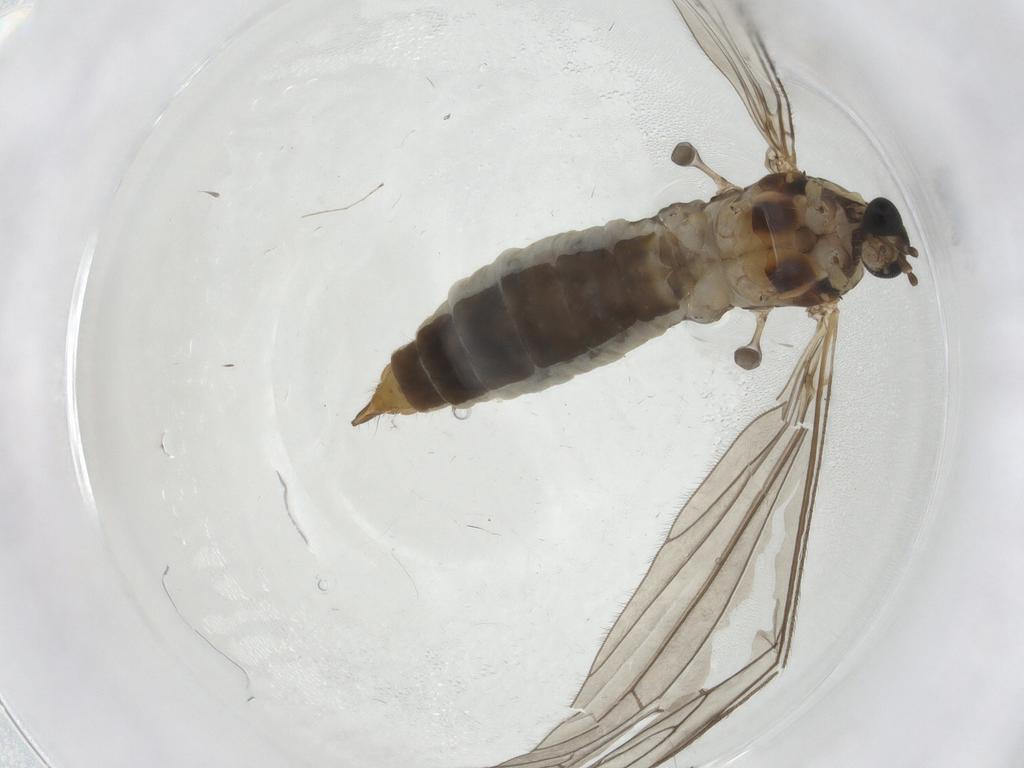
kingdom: Animalia
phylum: Arthropoda
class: Insecta
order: Diptera
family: Limoniidae
